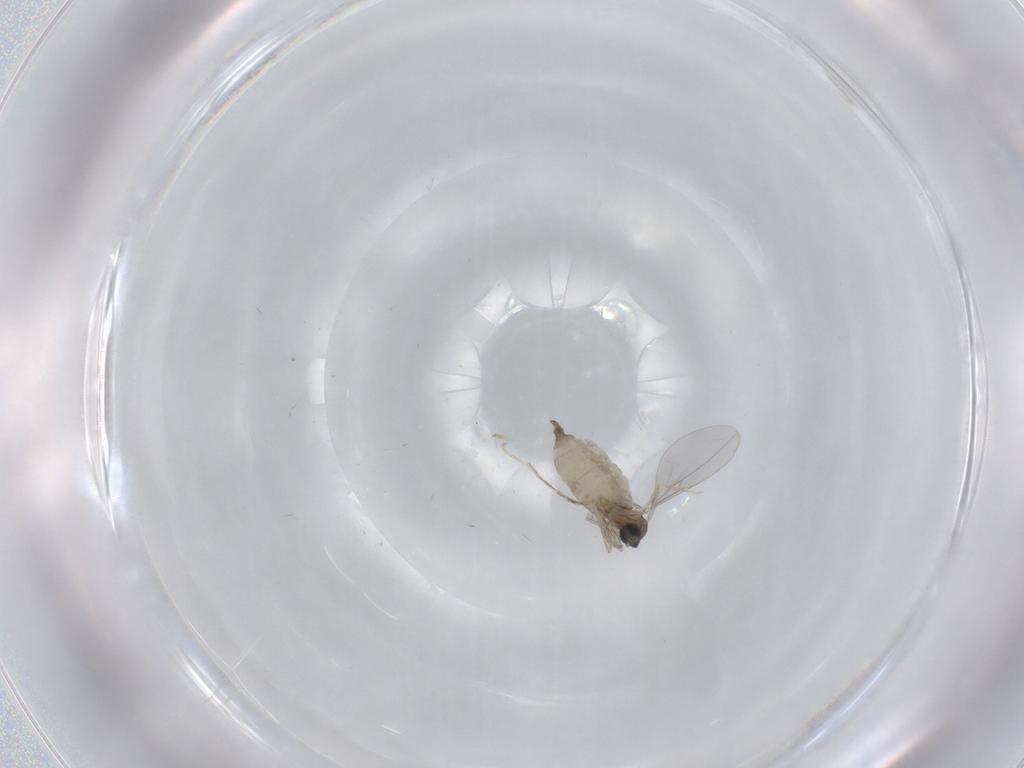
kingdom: Animalia
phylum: Arthropoda
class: Insecta
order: Diptera
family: Cecidomyiidae
